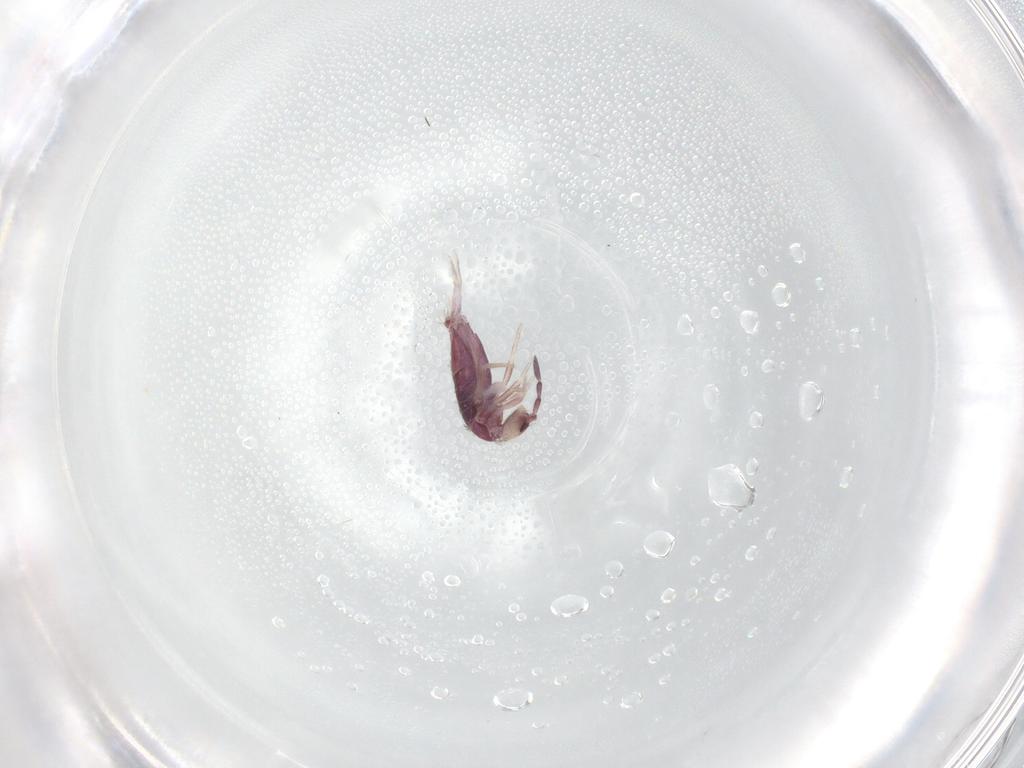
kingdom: Animalia
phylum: Arthropoda
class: Collembola
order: Entomobryomorpha
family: Entomobryidae
